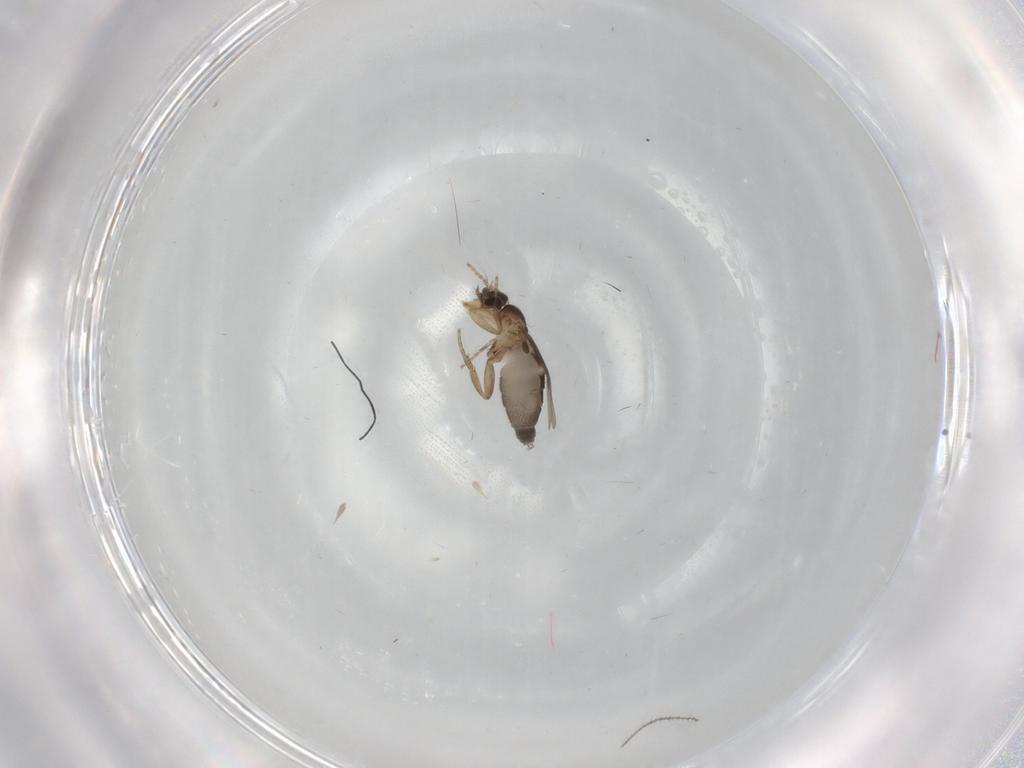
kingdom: Animalia
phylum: Arthropoda
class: Insecta
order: Diptera
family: Phoridae
